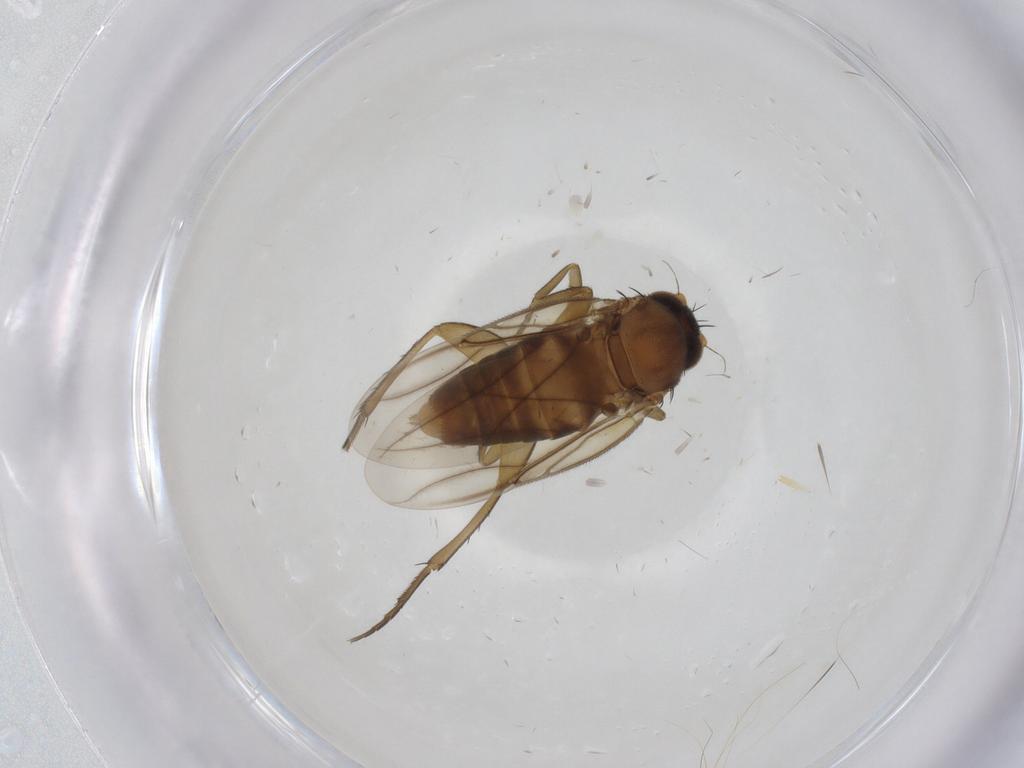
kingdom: Animalia
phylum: Arthropoda
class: Insecta
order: Diptera
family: Phoridae
